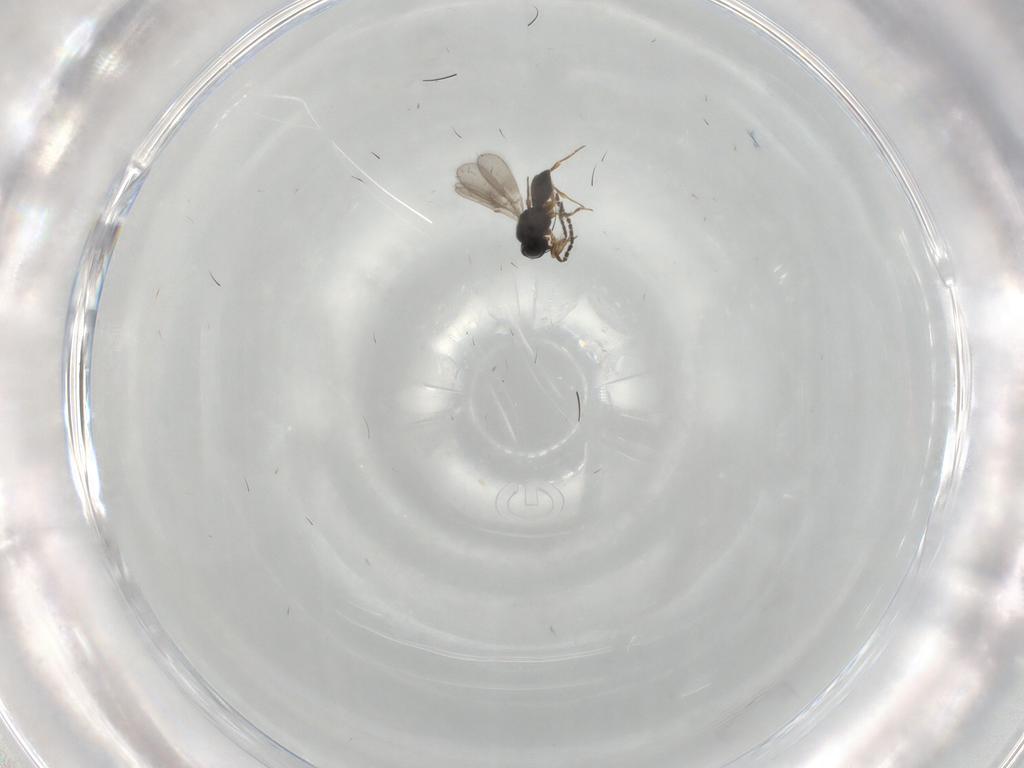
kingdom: Animalia
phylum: Arthropoda
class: Insecta
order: Hymenoptera
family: Scelionidae
